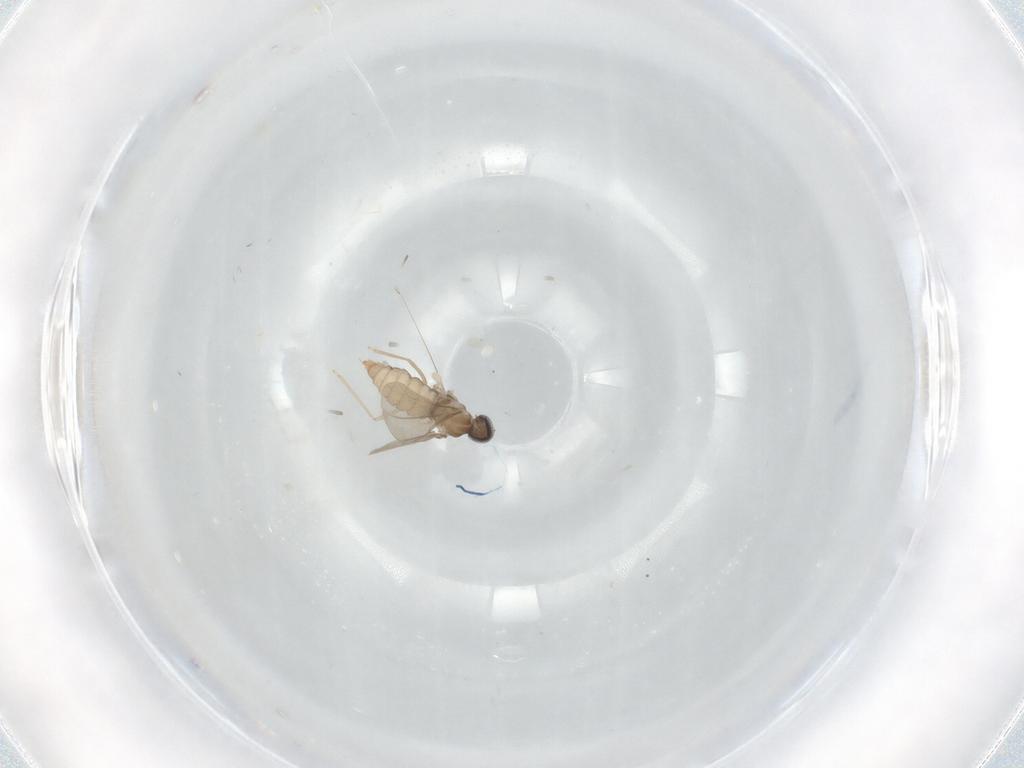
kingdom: Animalia
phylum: Arthropoda
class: Insecta
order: Diptera
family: Cecidomyiidae
